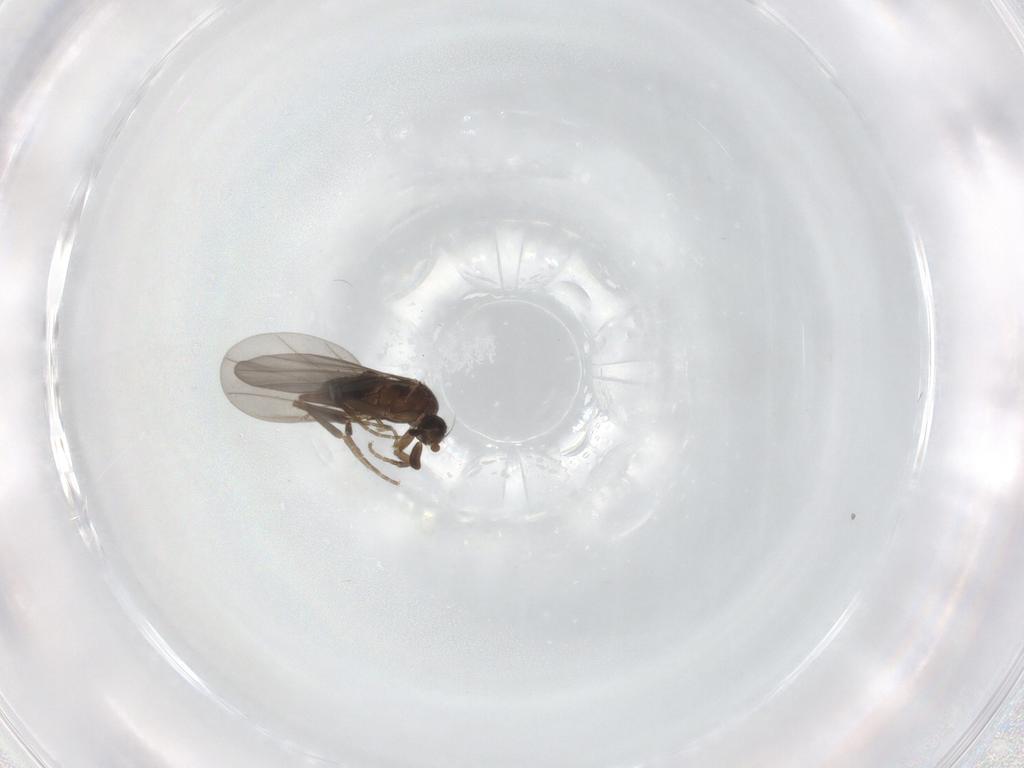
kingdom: Animalia
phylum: Arthropoda
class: Insecta
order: Diptera
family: Phoridae
